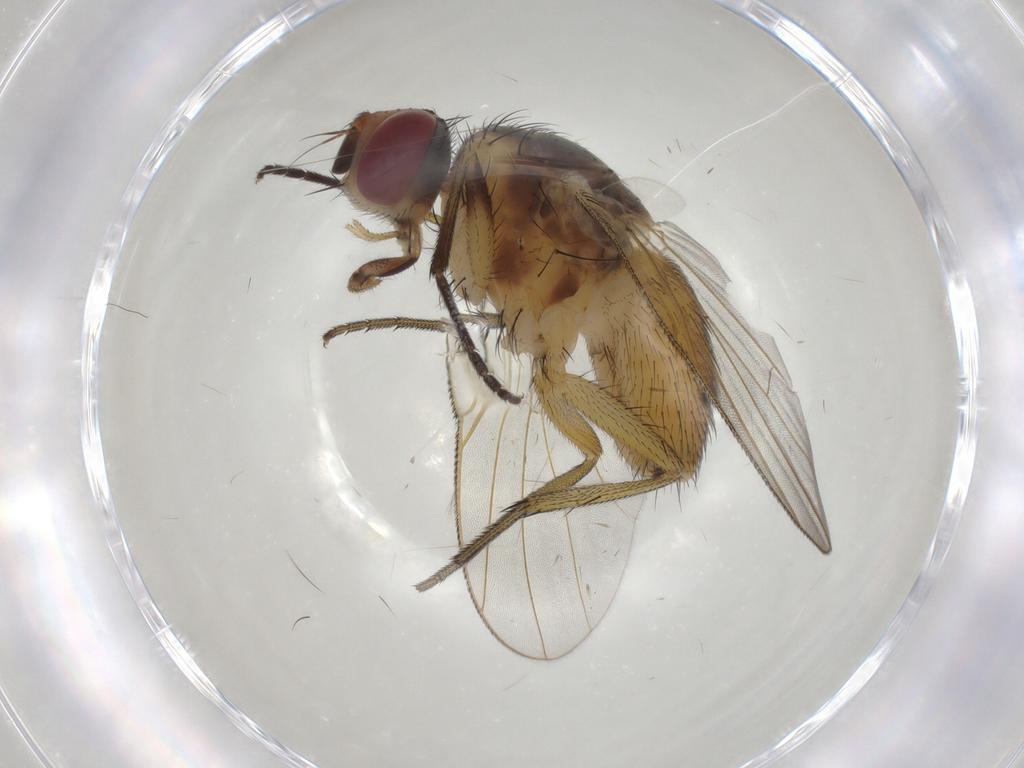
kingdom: Animalia
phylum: Arthropoda
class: Insecta
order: Diptera
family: Muscidae
